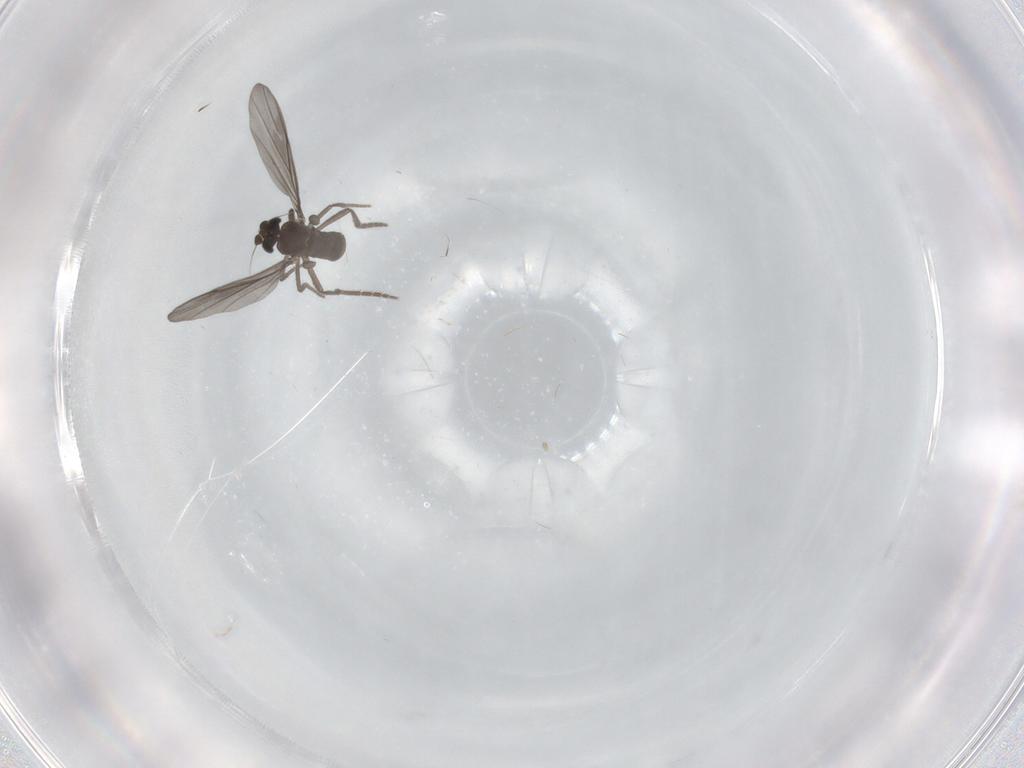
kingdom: Animalia
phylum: Arthropoda
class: Insecta
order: Diptera
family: Phoridae
